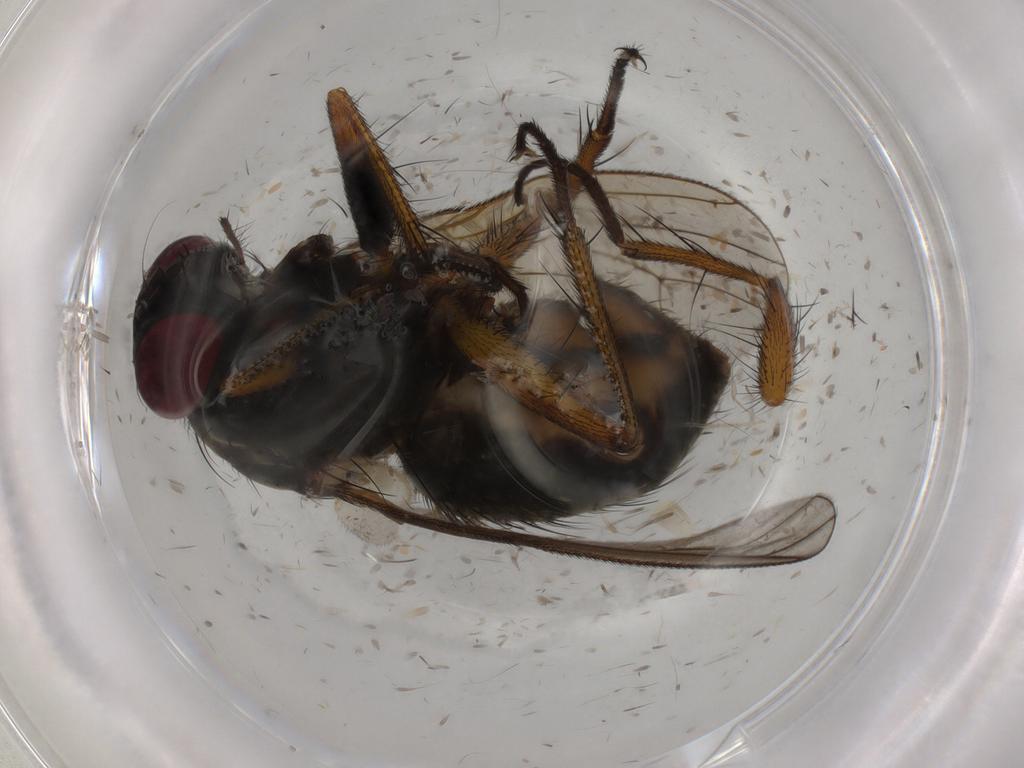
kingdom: Animalia
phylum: Arthropoda
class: Insecta
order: Diptera
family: Muscidae
